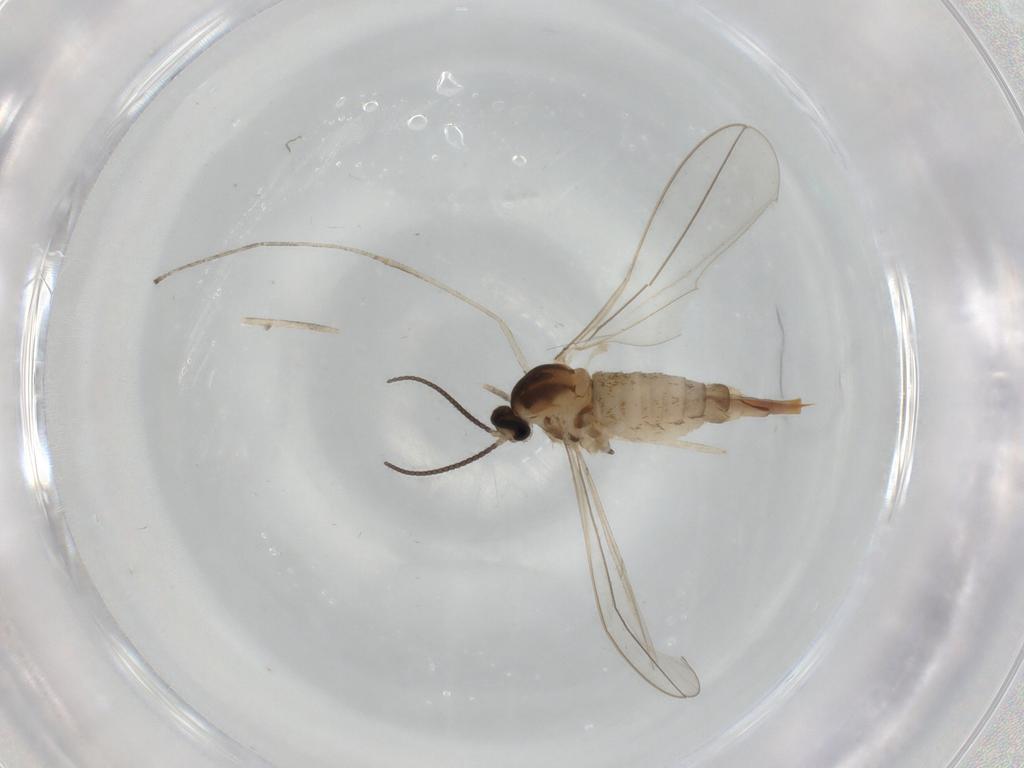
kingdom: Animalia
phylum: Arthropoda
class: Insecta
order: Diptera
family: Cecidomyiidae
